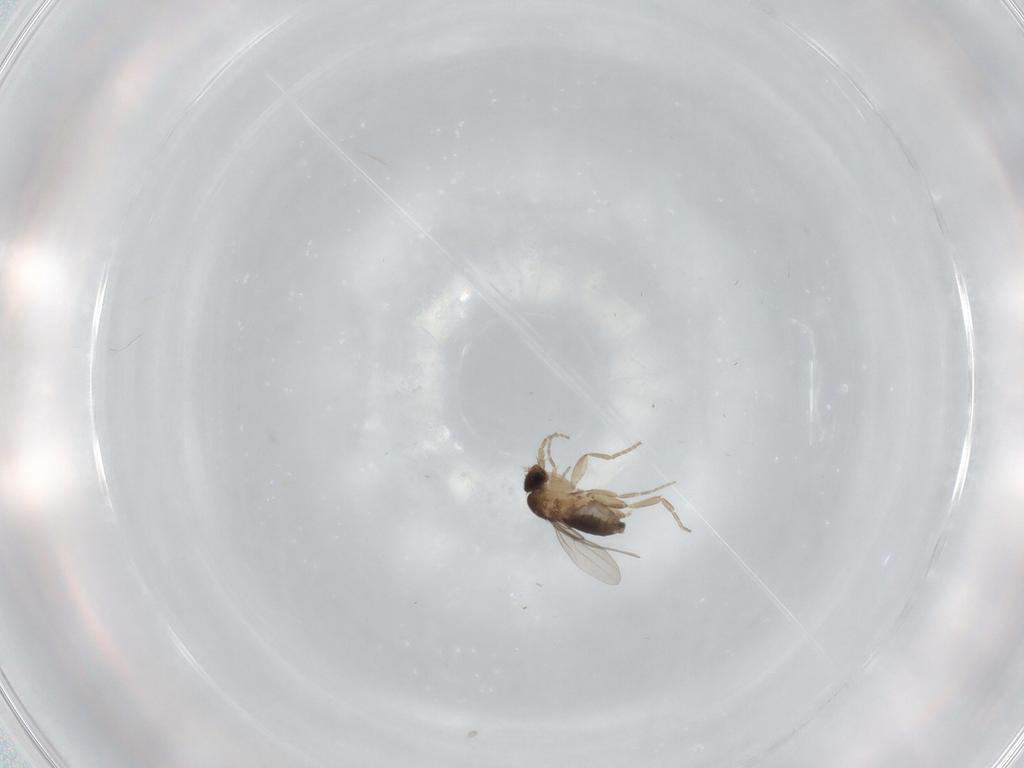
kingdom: Animalia
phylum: Arthropoda
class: Insecta
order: Diptera
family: Phoridae
